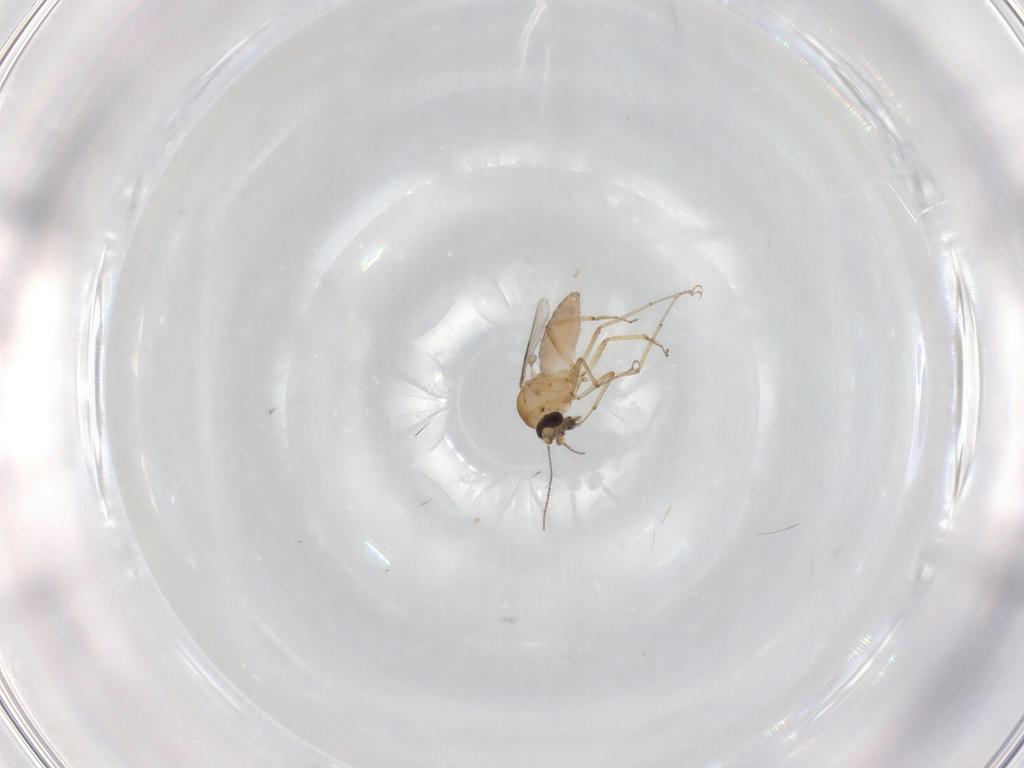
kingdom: Animalia
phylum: Arthropoda
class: Insecta
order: Diptera
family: Ceratopogonidae
